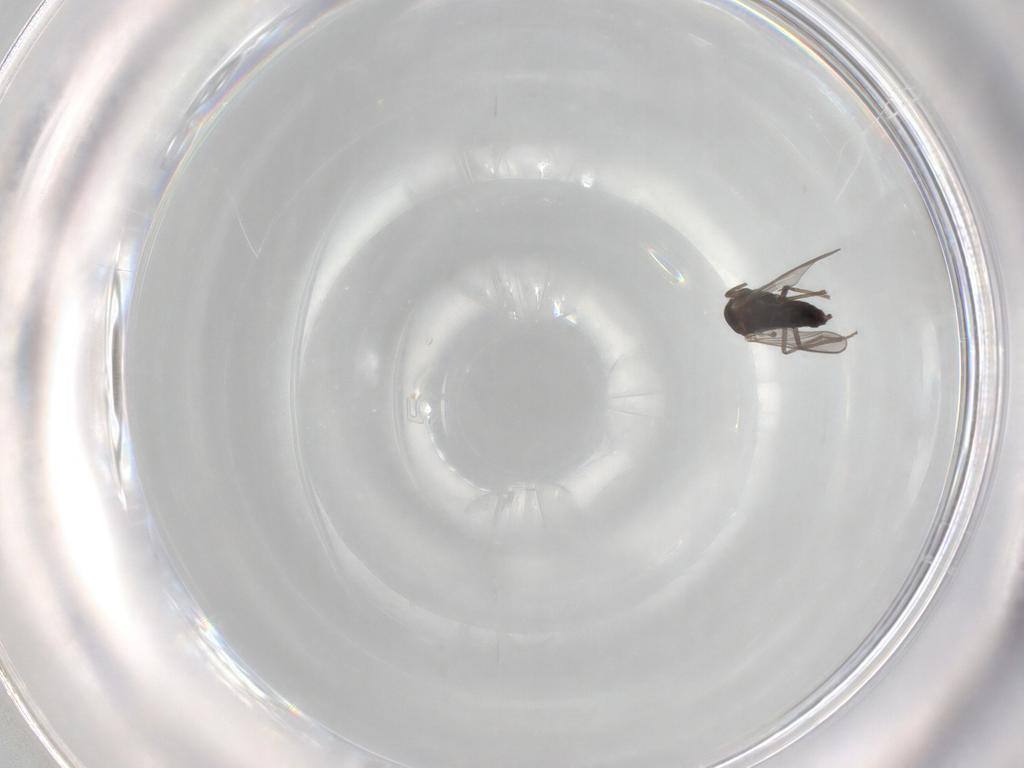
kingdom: Animalia
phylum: Arthropoda
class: Insecta
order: Diptera
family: Chironomidae
